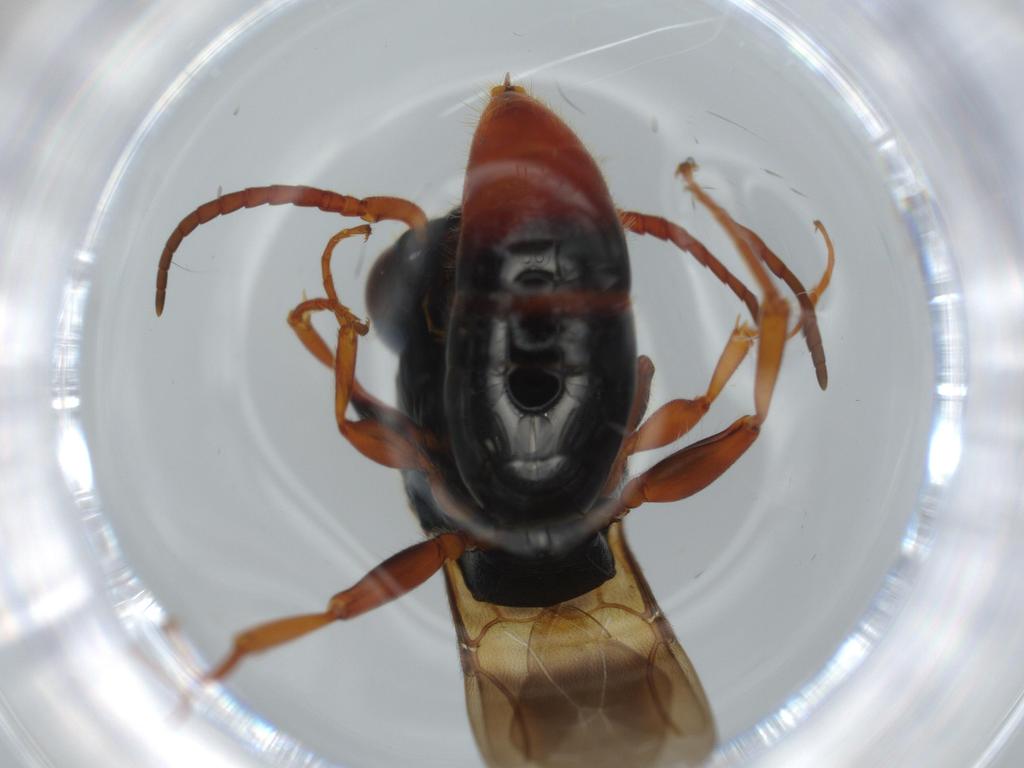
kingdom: Animalia
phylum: Arthropoda
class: Insecta
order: Hymenoptera
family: Bethylidae
